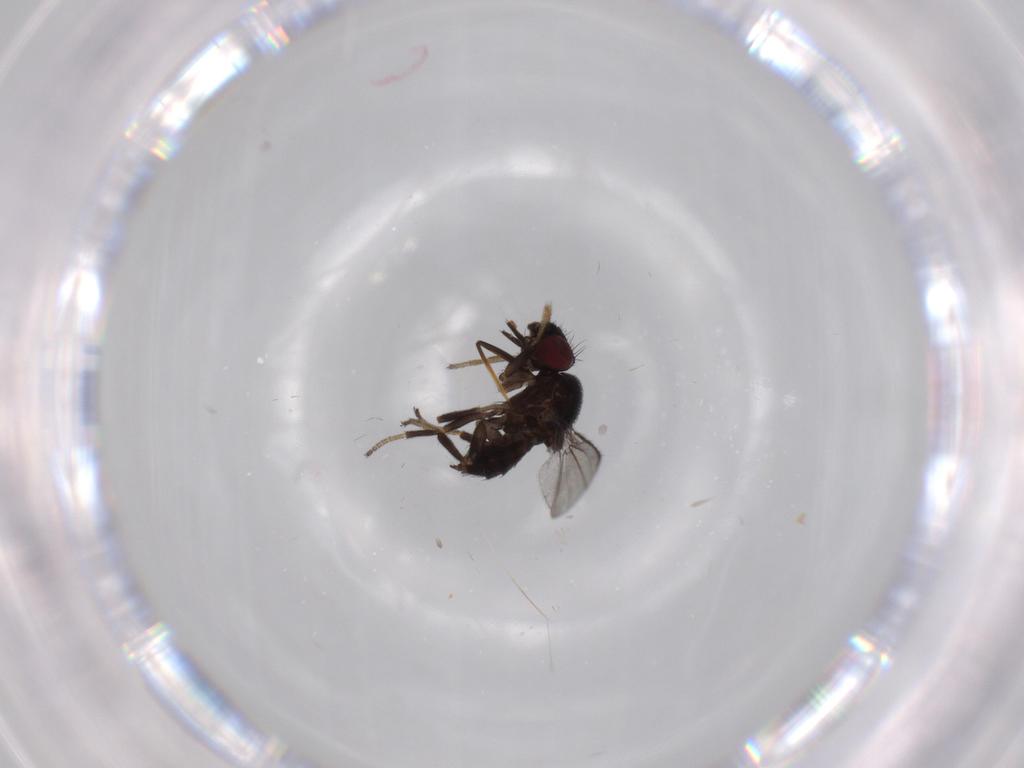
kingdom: Animalia
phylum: Arthropoda
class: Insecta
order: Diptera
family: Milichiidae
